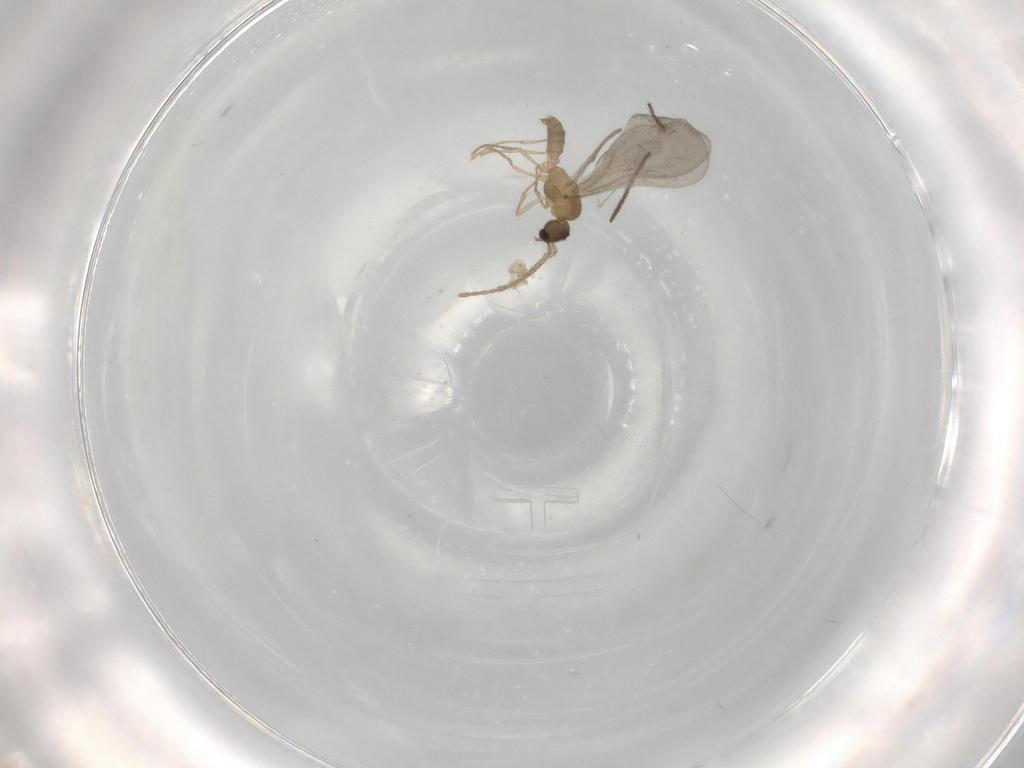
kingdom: Animalia
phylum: Arthropoda
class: Insecta
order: Hymenoptera
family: Formicidae
